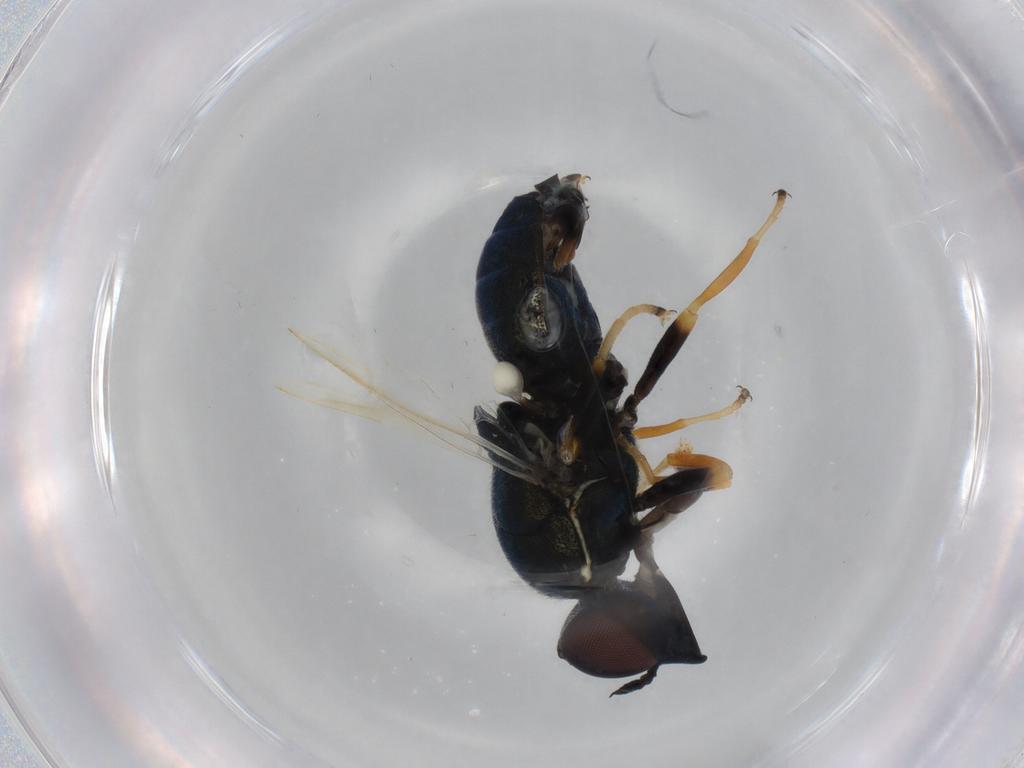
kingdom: Animalia
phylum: Arthropoda
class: Insecta
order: Diptera
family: Stratiomyidae
